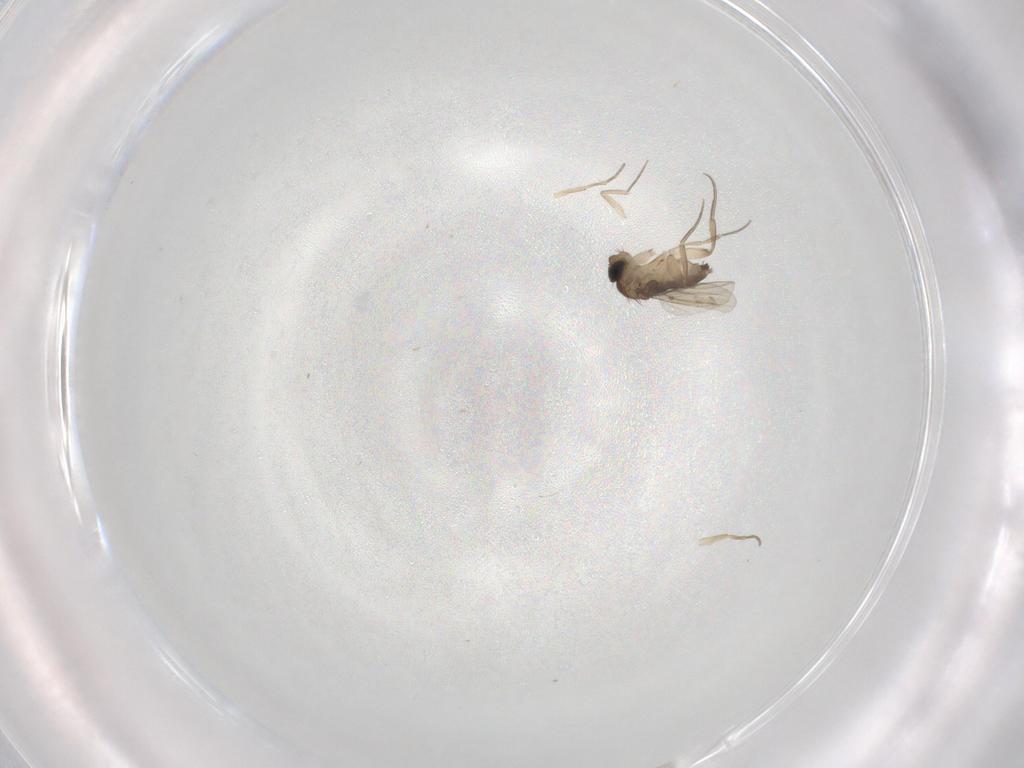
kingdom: Animalia
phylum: Arthropoda
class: Insecta
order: Diptera
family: Phoridae
